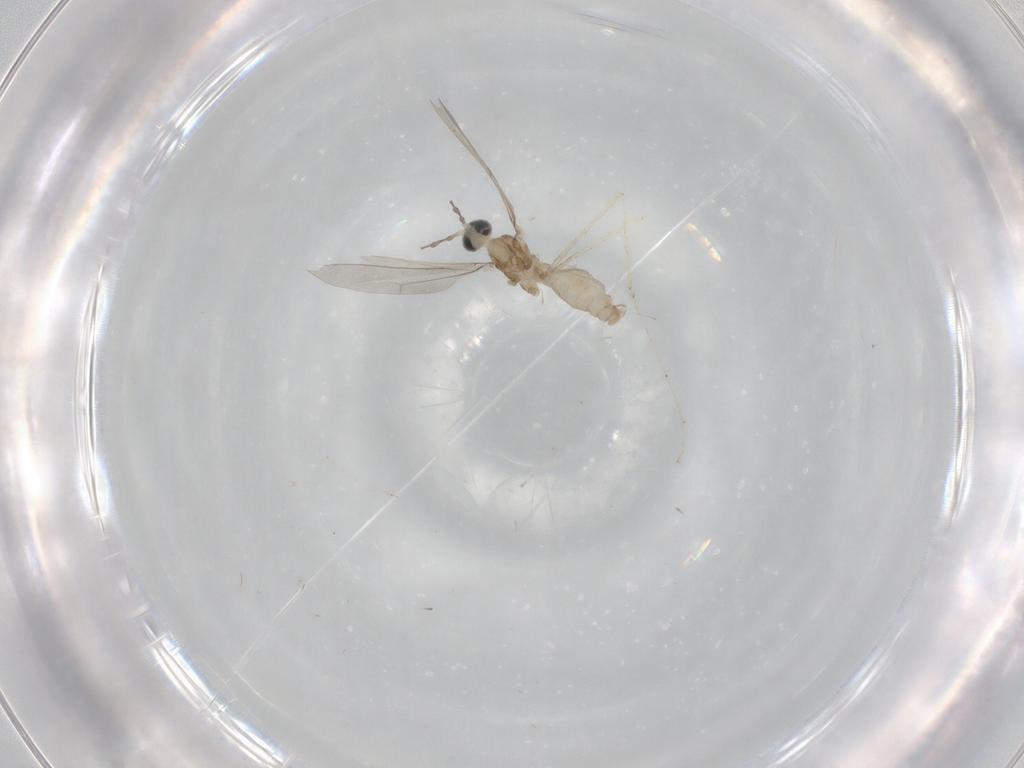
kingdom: Animalia
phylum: Arthropoda
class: Insecta
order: Diptera
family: Cecidomyiidae
